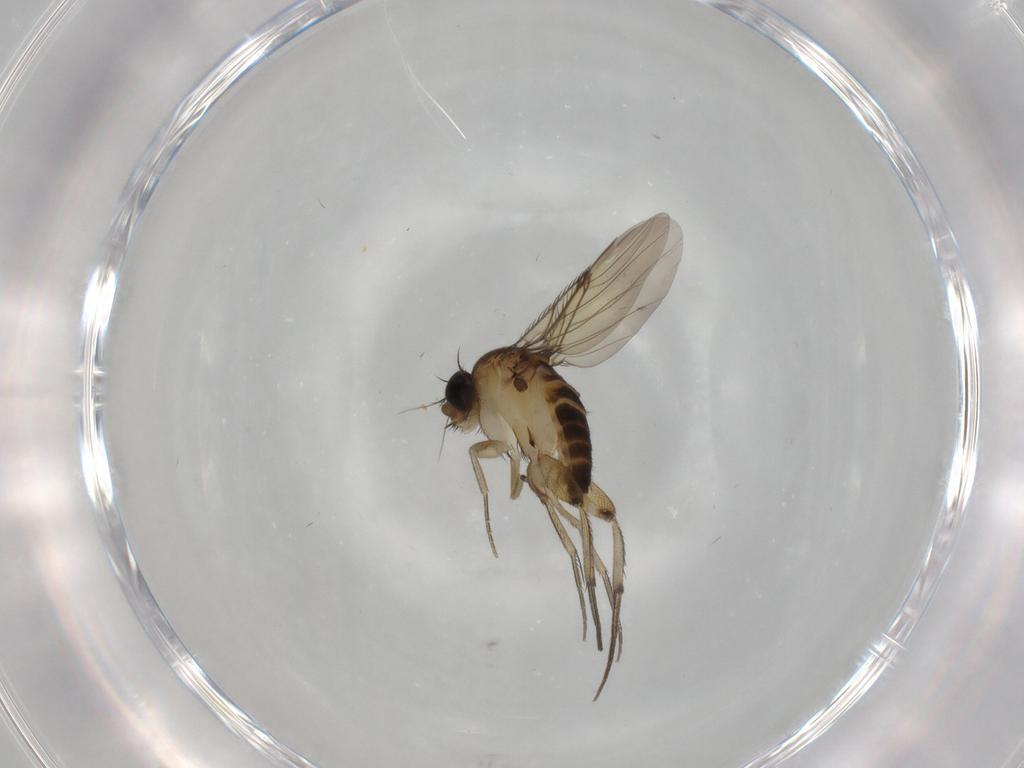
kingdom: Animalia
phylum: Arthropoda
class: Insecta
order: Diptera
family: Phoridae
